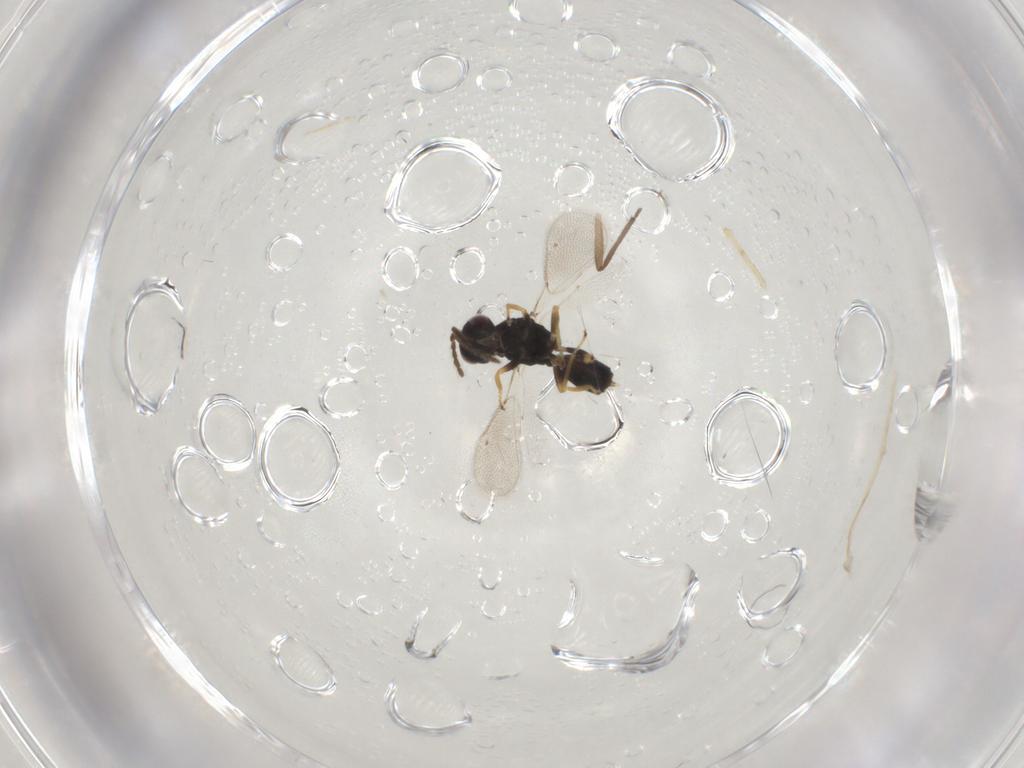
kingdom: Animalia
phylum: Arthropoda
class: Insecta
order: Hymenoptera
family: Eulophidae
